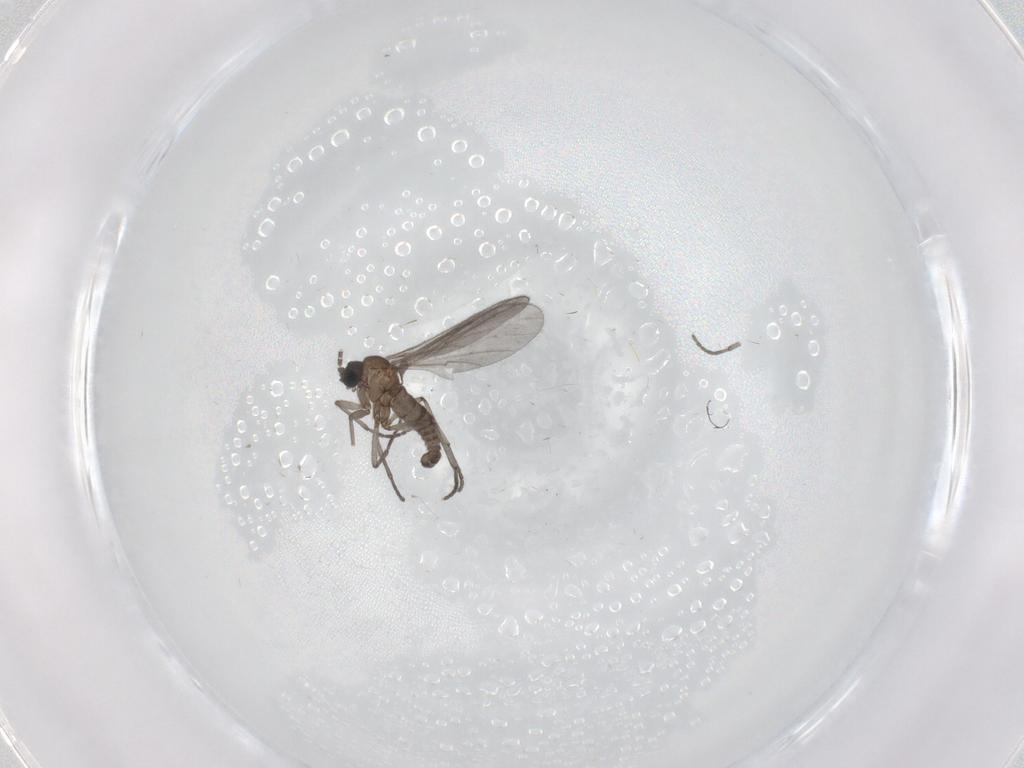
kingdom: Animalia
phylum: Arthropoda
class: Insecta
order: Diptera
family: Sciaridae
